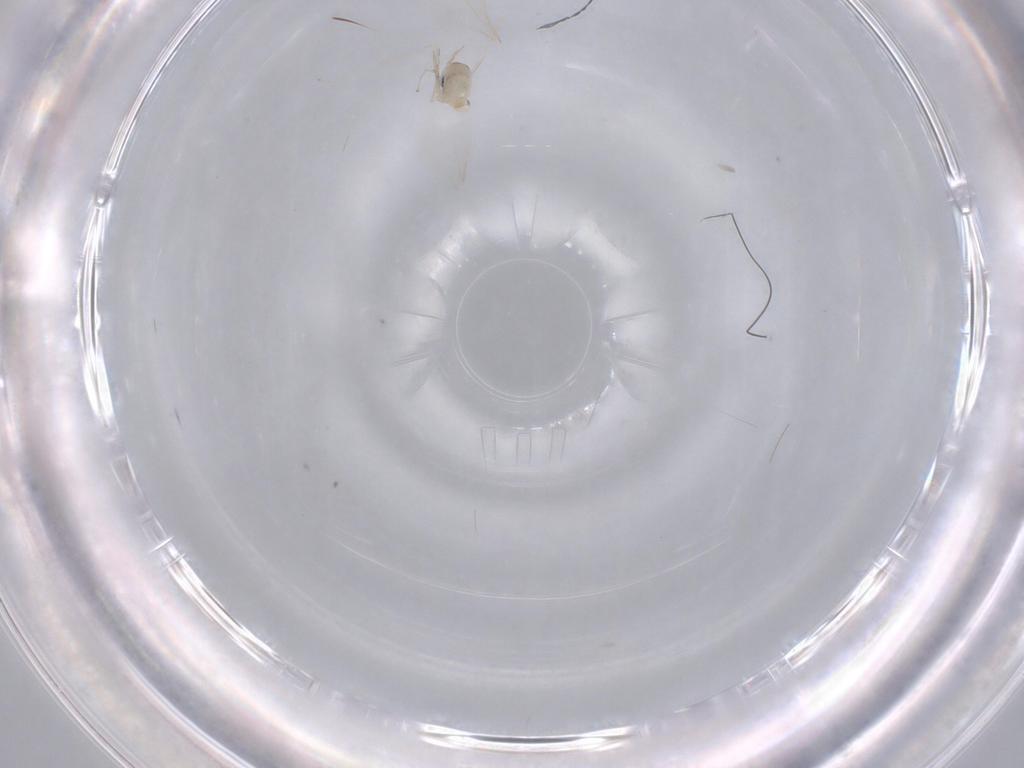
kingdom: Animalia
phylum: Arthropoda
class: Insecta
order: Diptera
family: Cecidomyiidae
